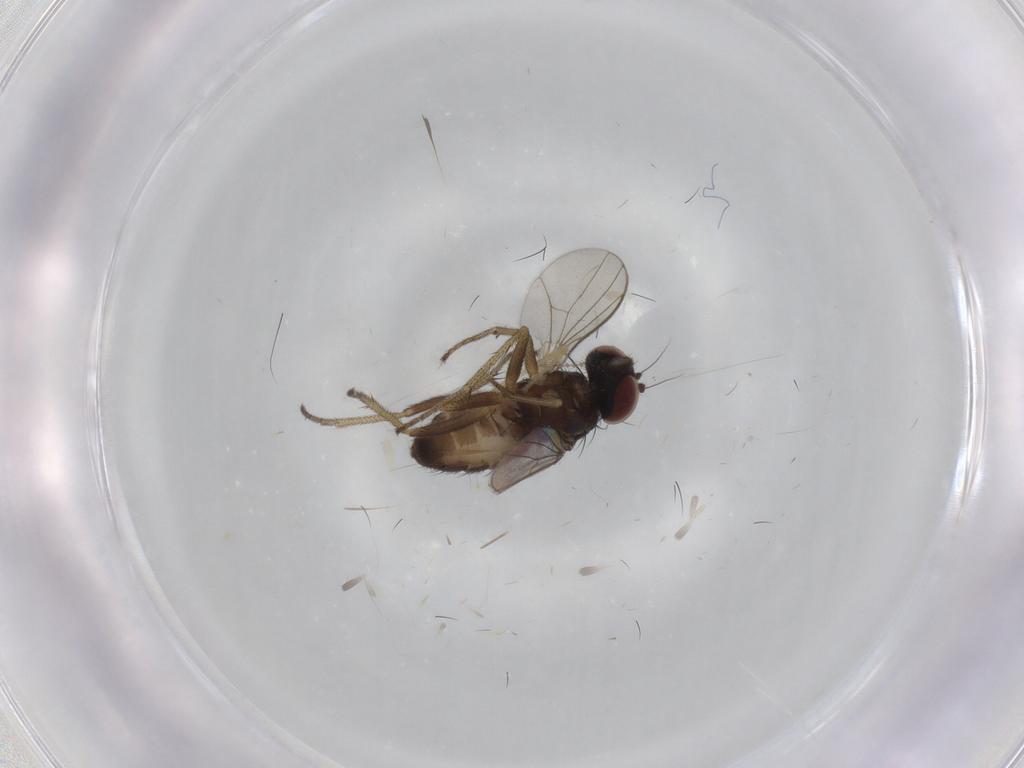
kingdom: Animalia
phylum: Arthropoda
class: Insecta
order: Diptera
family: Dolichopodidae
